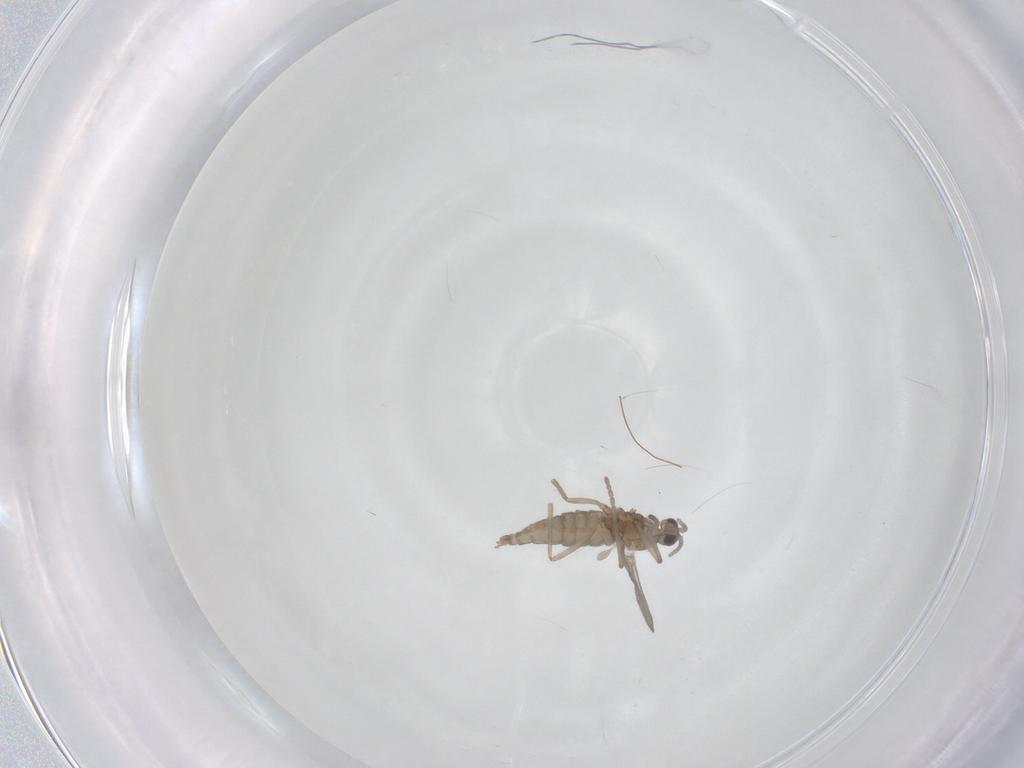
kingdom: Animalia
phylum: Arthropoda
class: Insecta
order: Diptera
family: Cecidomyiidae
